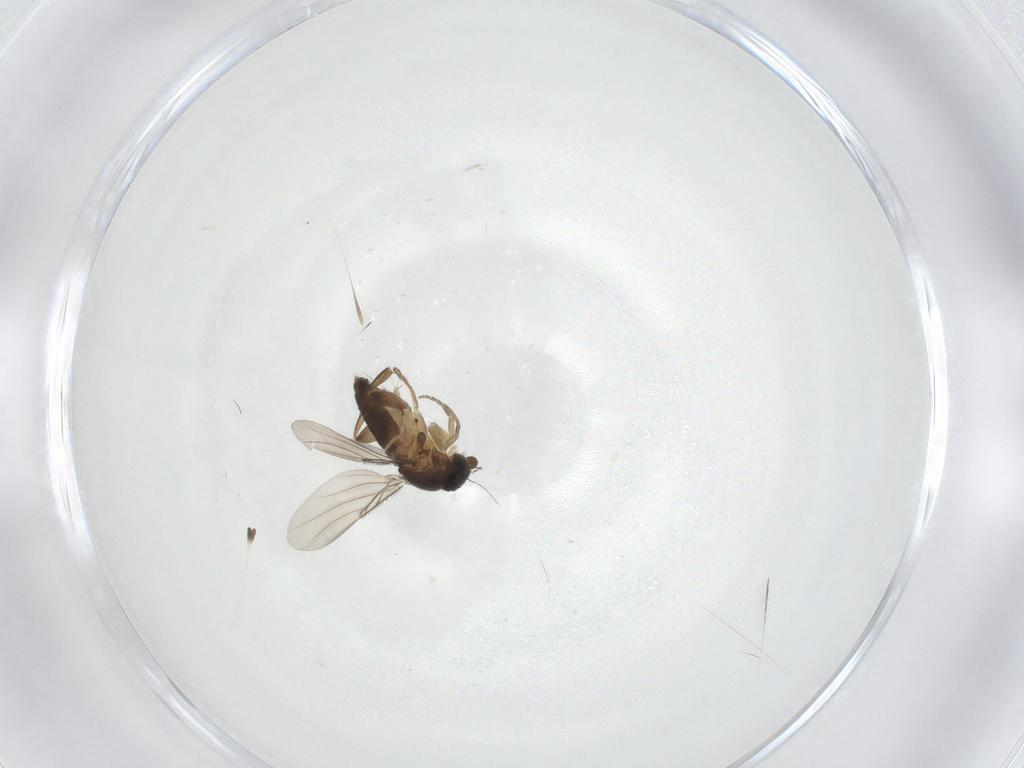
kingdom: Animalia
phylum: Arthropoda
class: Insecta
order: Diptera
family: Phoridae
